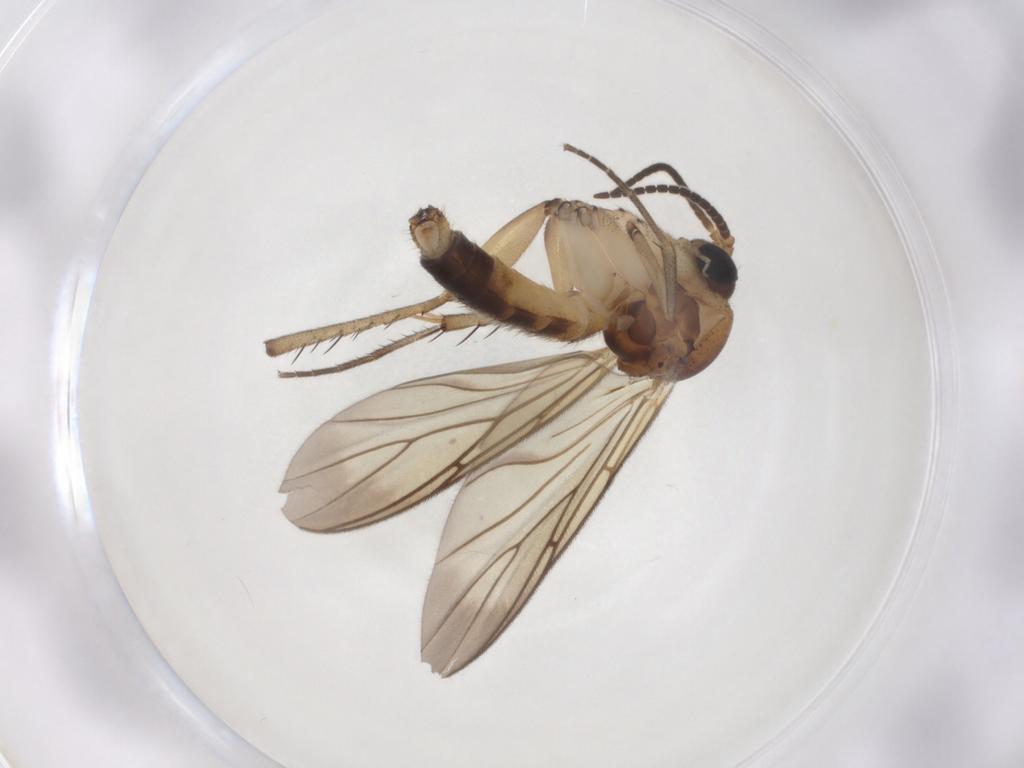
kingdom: Animalia
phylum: Arthropoda
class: Insecta
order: Diptera
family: Mycetophilidae
